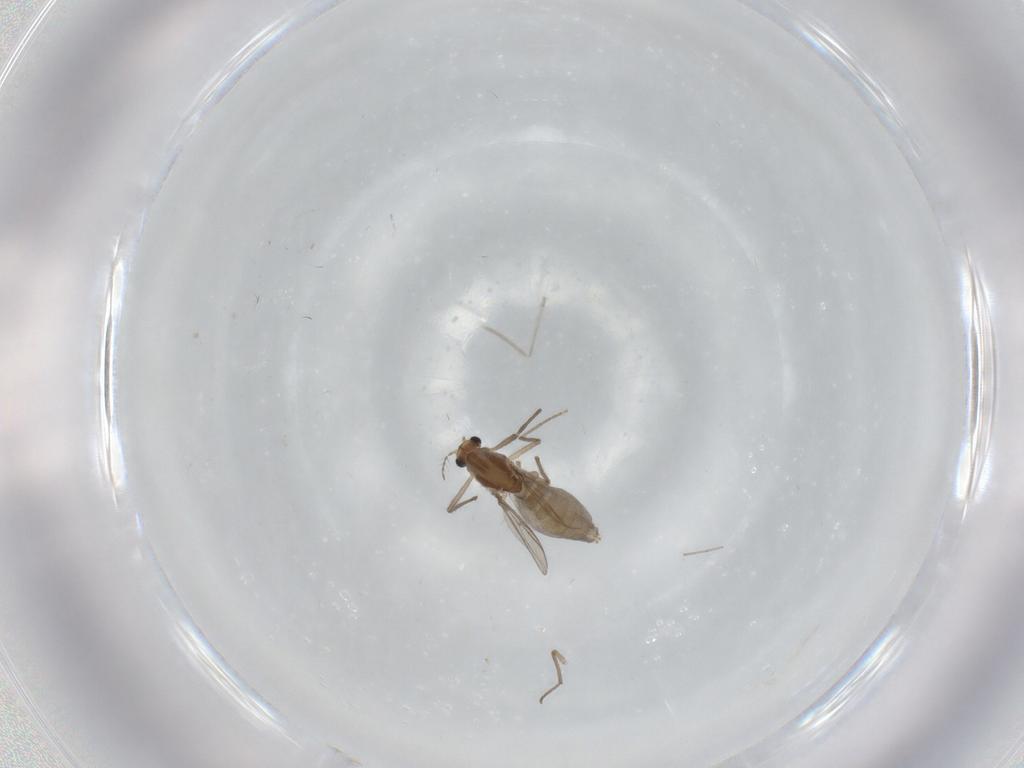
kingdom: Animalia
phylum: Arthropoda
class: Insecta
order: Diptera
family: Chironomidae
